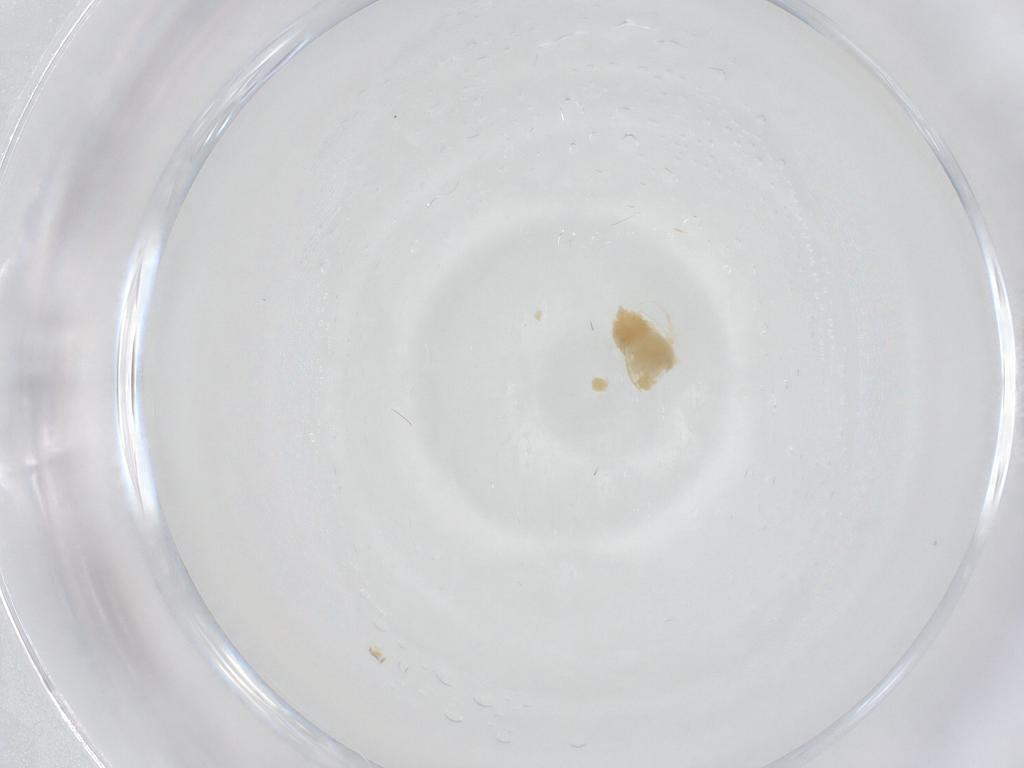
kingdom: Animalia
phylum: Arthropoda
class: Arachnida
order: Trombidiformes
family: Anystidae
